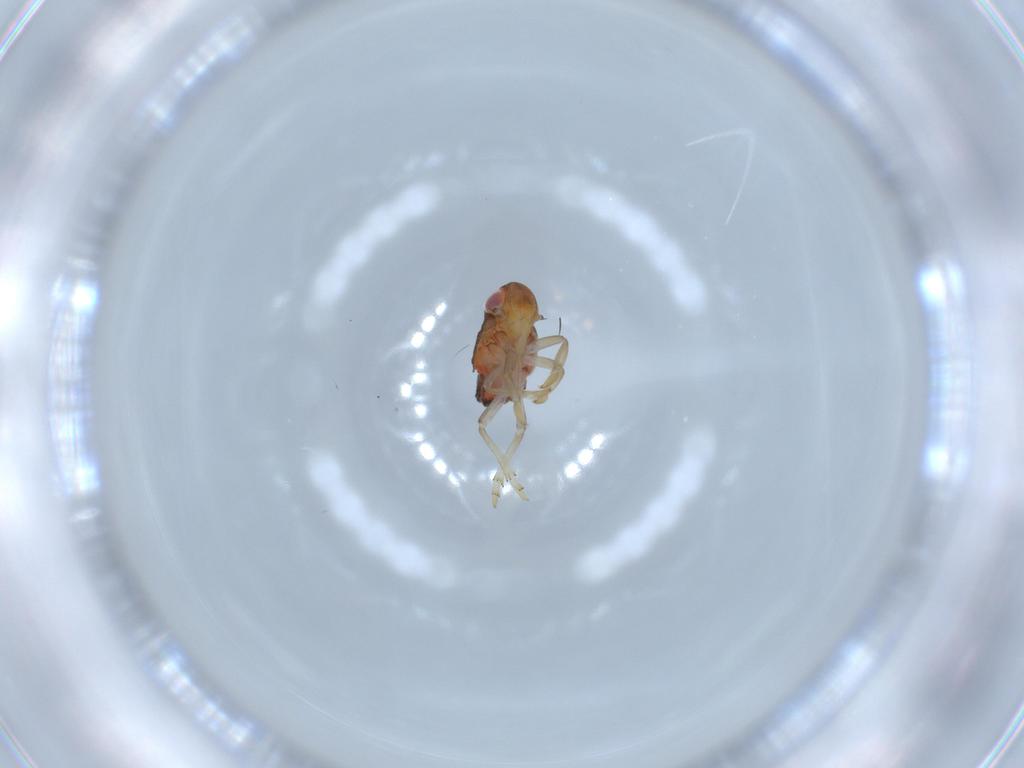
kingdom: Animalia
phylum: Arthropoda
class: Insecta
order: Hemiptera
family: Issidae
